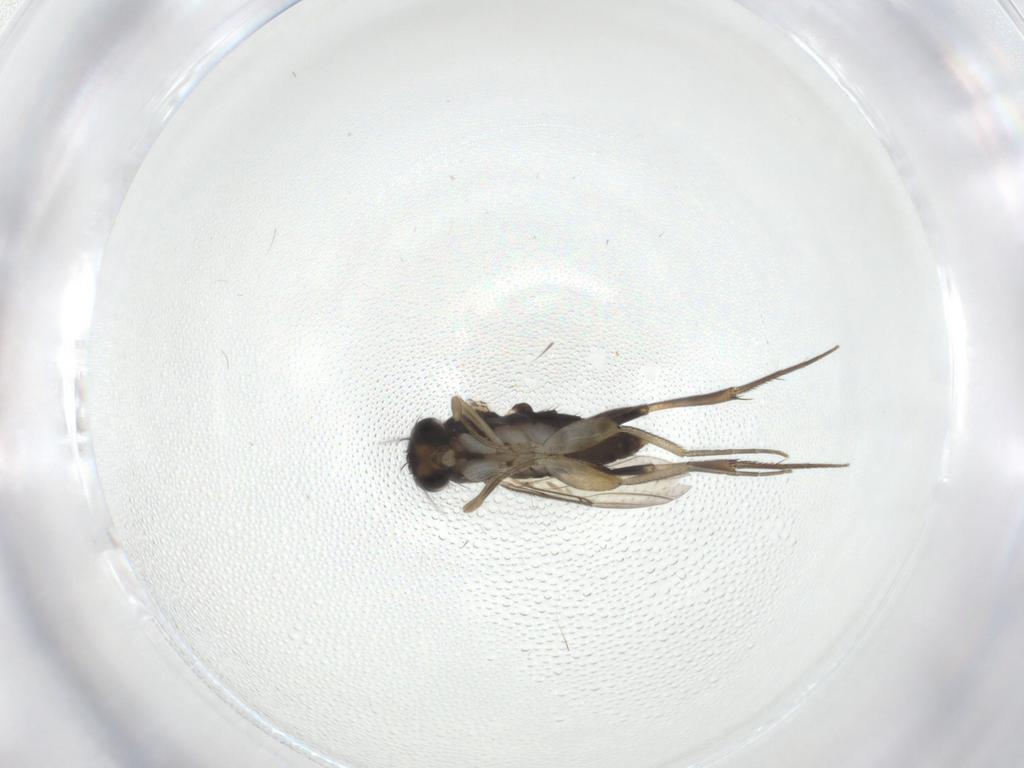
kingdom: Animalia
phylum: Arthropoda
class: Insecta
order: Diptera
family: Phoridae
